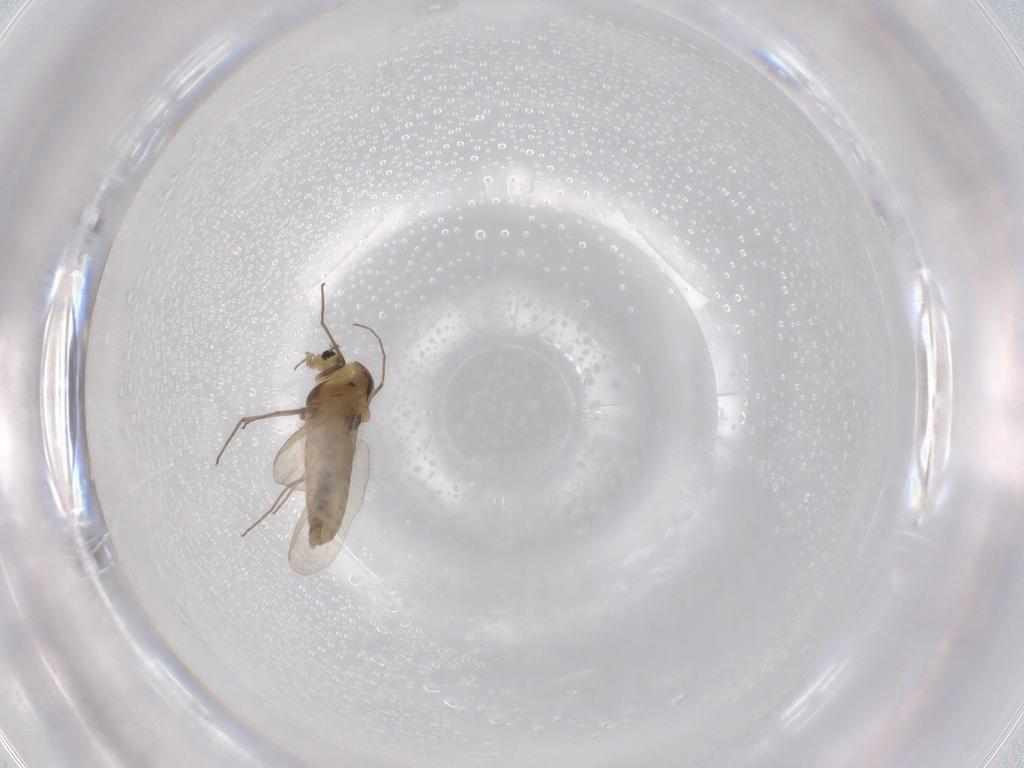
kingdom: Animalia
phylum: Arthropoda
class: Insecta
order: Diptera
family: Chironomidae
